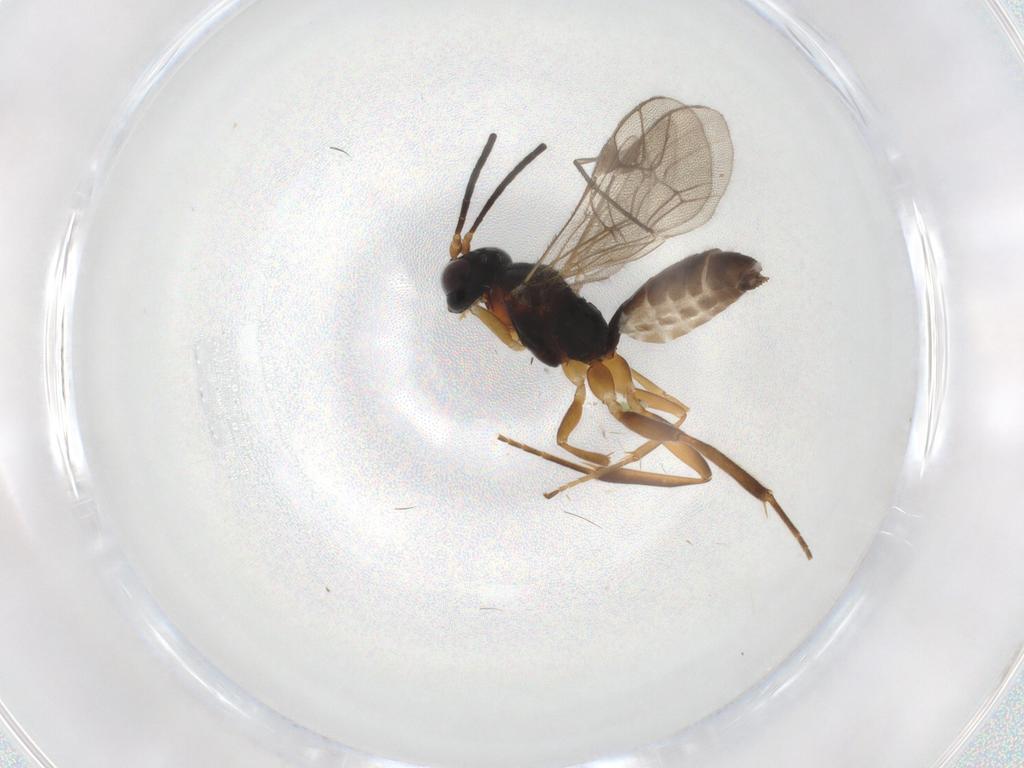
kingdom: Animalia
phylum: Arthropoda
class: Insecta
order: Hymenoptera
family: Ichneumonidae
